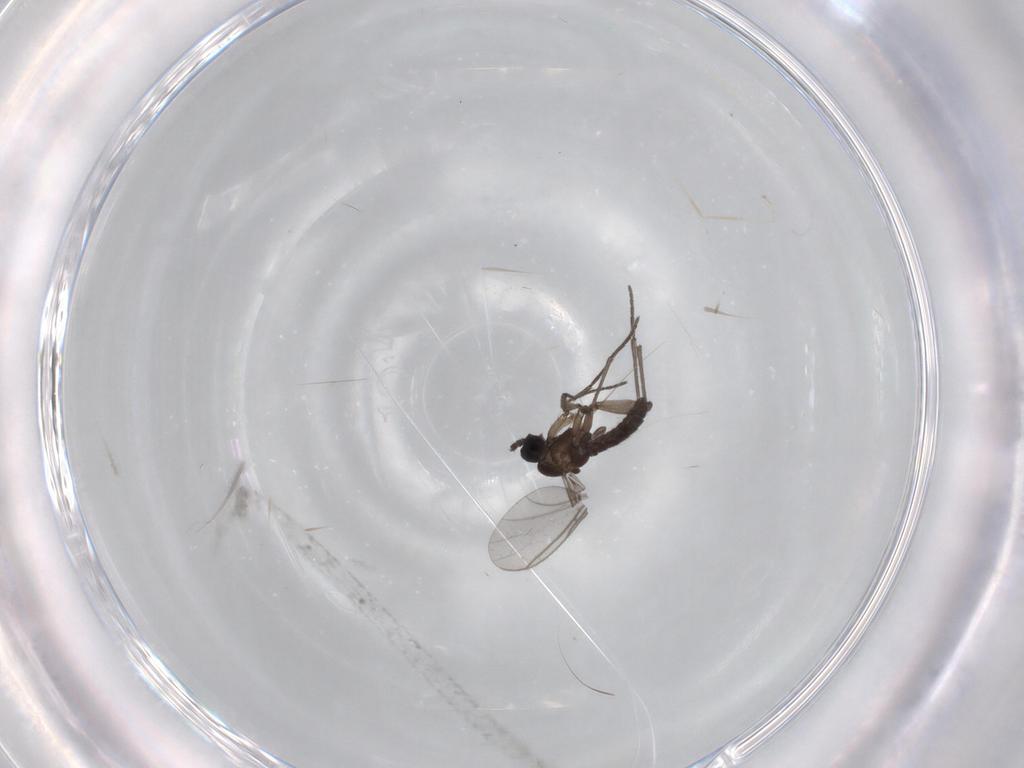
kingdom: Animalia
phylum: Arthropoda
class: Insecta
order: Diptera
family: Sciaridae
